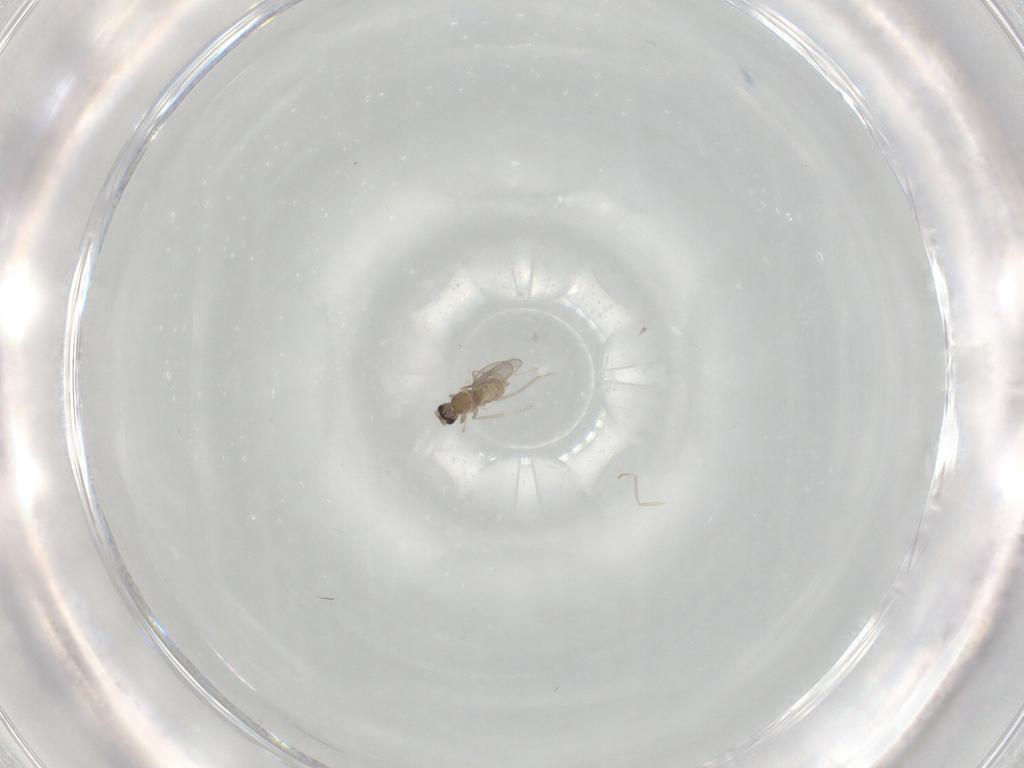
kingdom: Animalia
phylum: Arthropoda
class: Insecta
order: Diptera
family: Cecidomyiidae
